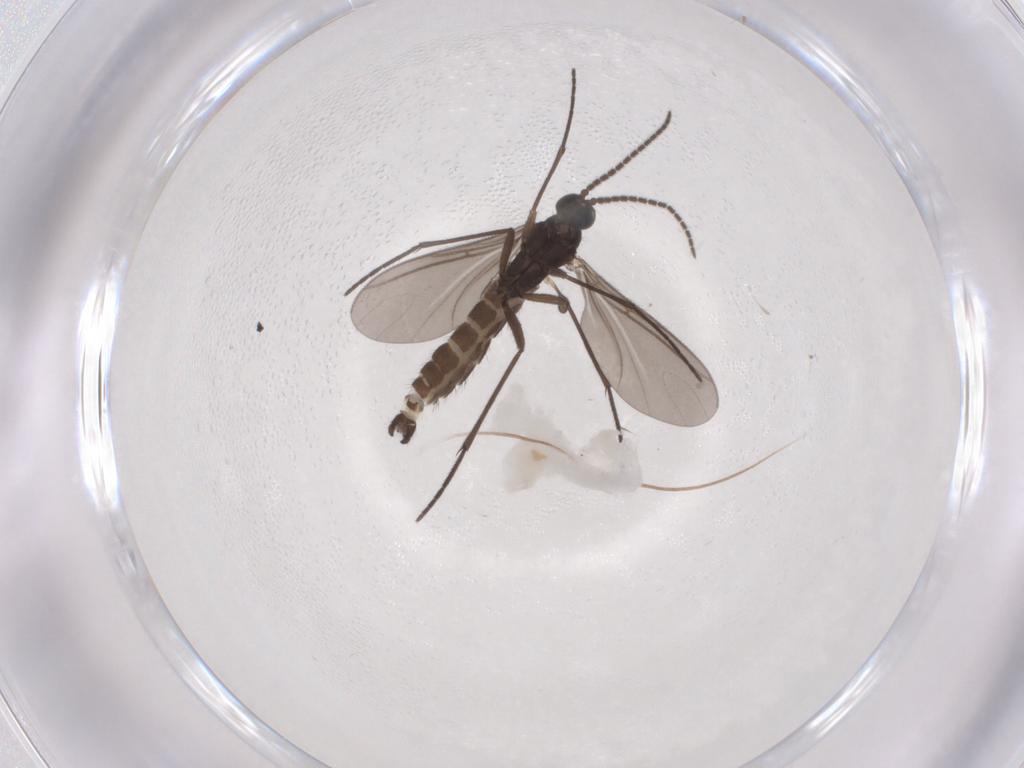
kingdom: Animalia
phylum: Arthropoda
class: Insecta
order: Diptera
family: Sciaridae
